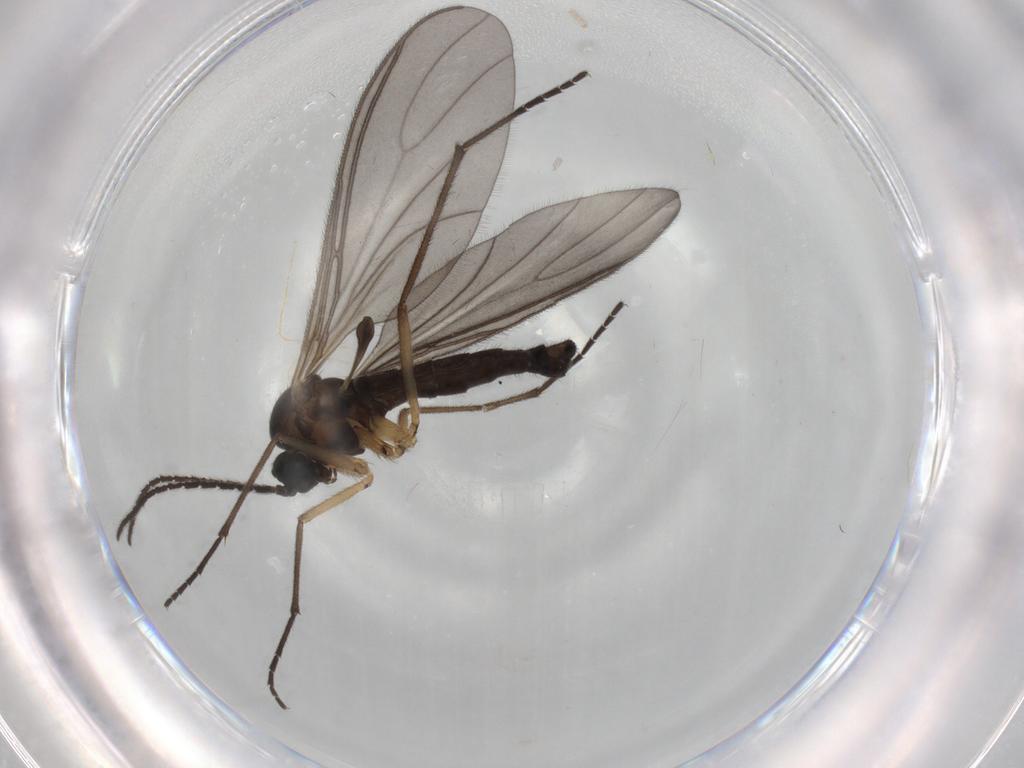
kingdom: Animalia
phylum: Arthropoda
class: Insecta
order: Diptera
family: Sciaridae
